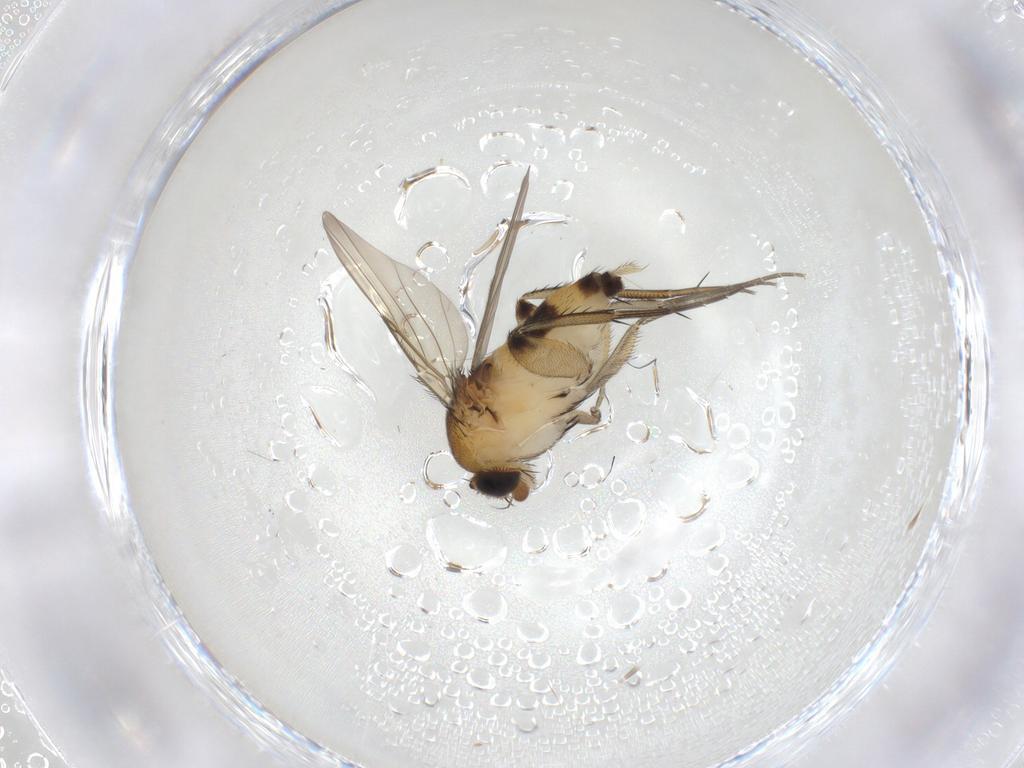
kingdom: Animalia
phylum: Arthropoda
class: Insecta
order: Diptera
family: Phoridae
